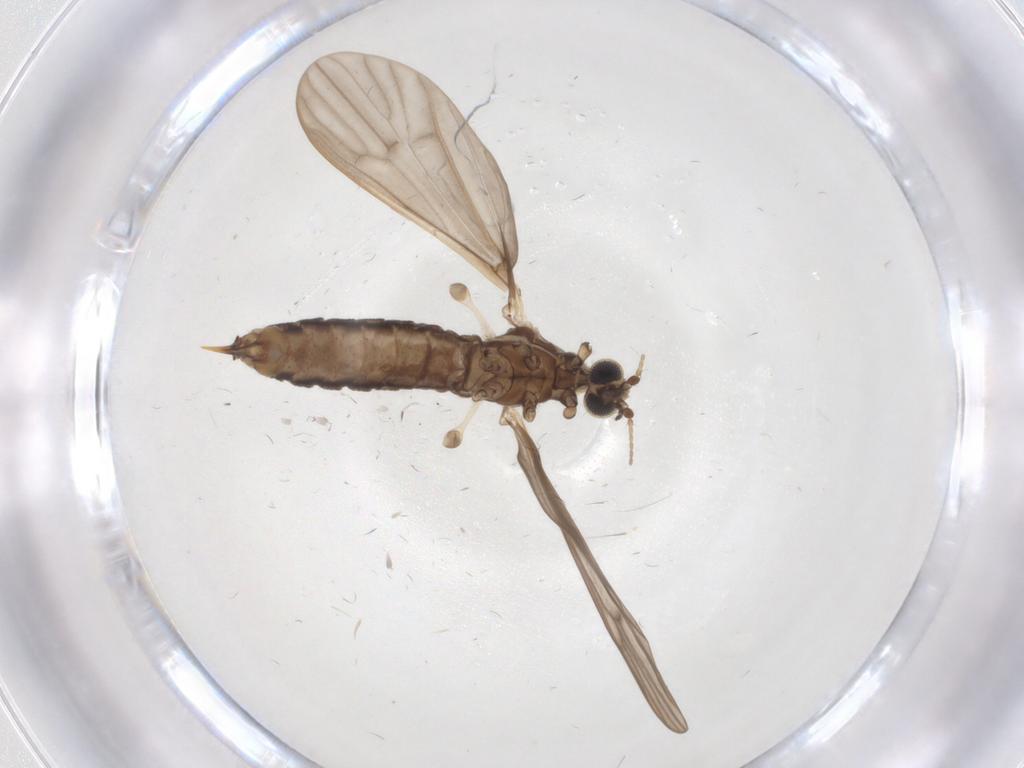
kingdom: Animalia
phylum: Arthropoda
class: Insecta
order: Diptera
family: Limoniidae
